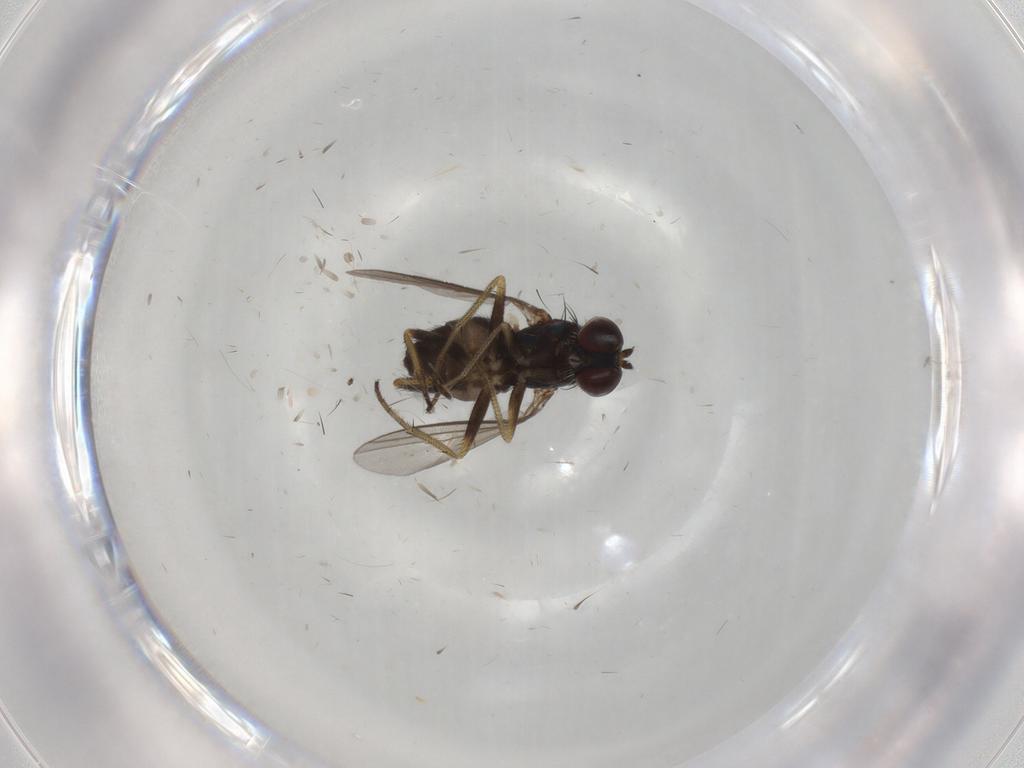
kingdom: Animalia
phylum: Arthropoda
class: Insecta
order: Diptera
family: Dolichopodidae
